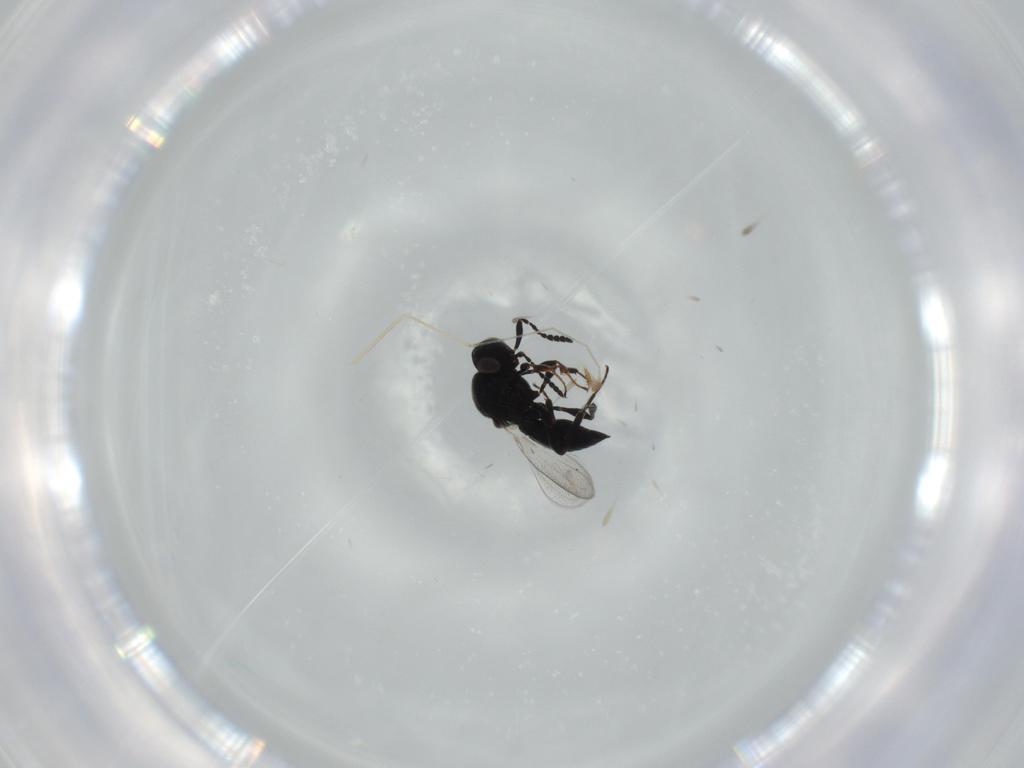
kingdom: Animalia
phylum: Arthropoda
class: Insecta
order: Hymenoptera
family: Platygastridae
